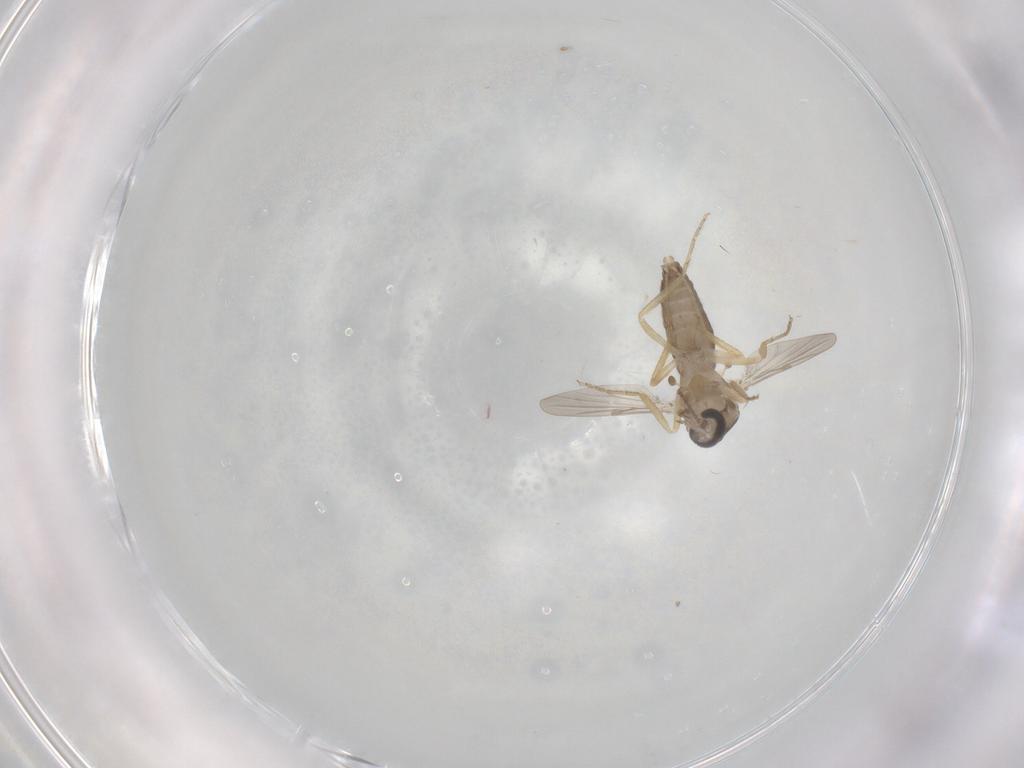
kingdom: Animalia
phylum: Arthropoda
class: Insecta
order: Diptera
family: Ceratopogonidae
